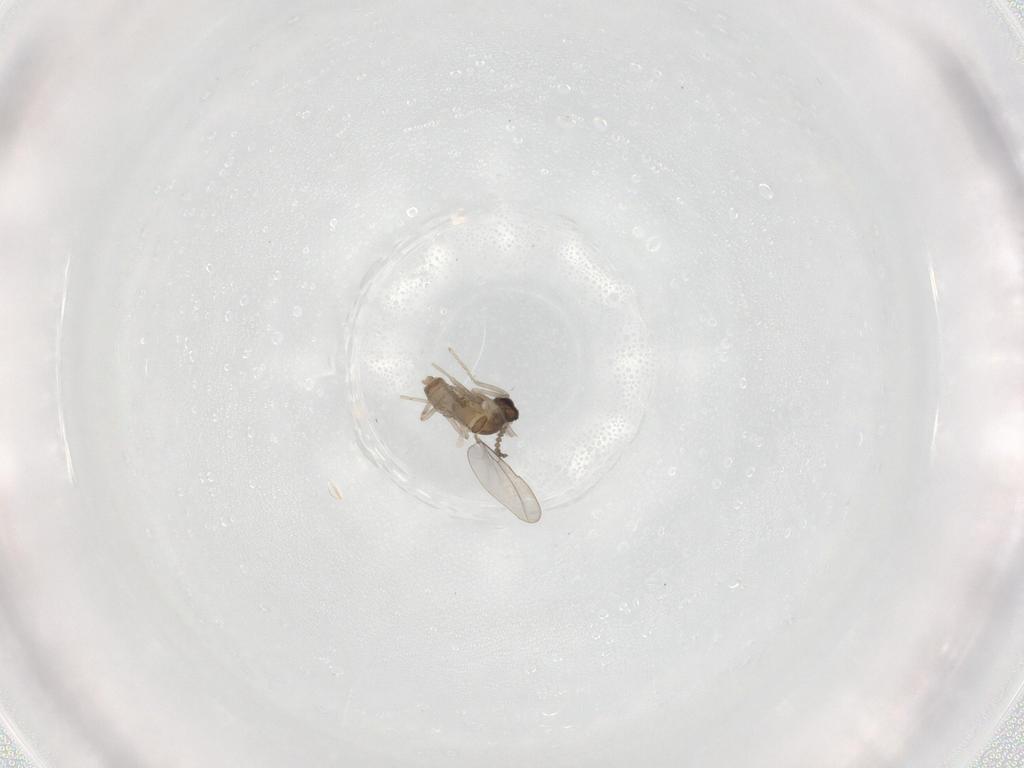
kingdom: Animalia
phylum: Arthropoda
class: Insecta
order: Diptera
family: Cecidomyiidae
